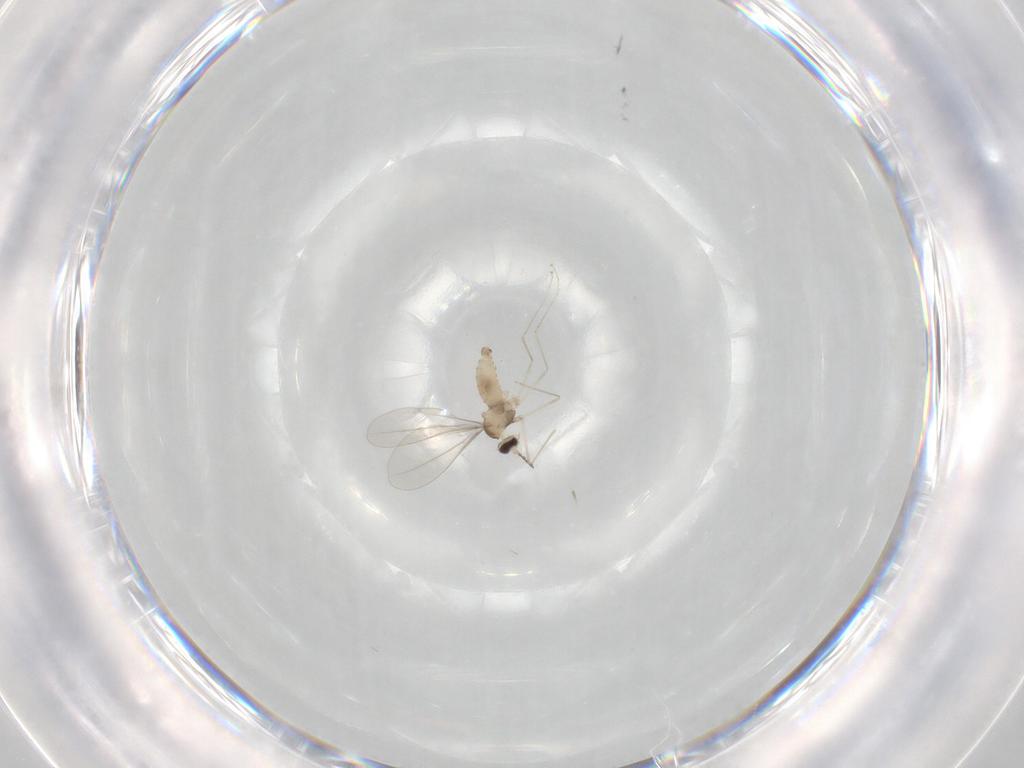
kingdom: Animalia
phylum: Arthropoda
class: Insecta
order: Diptera
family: Cecidomyiidae
